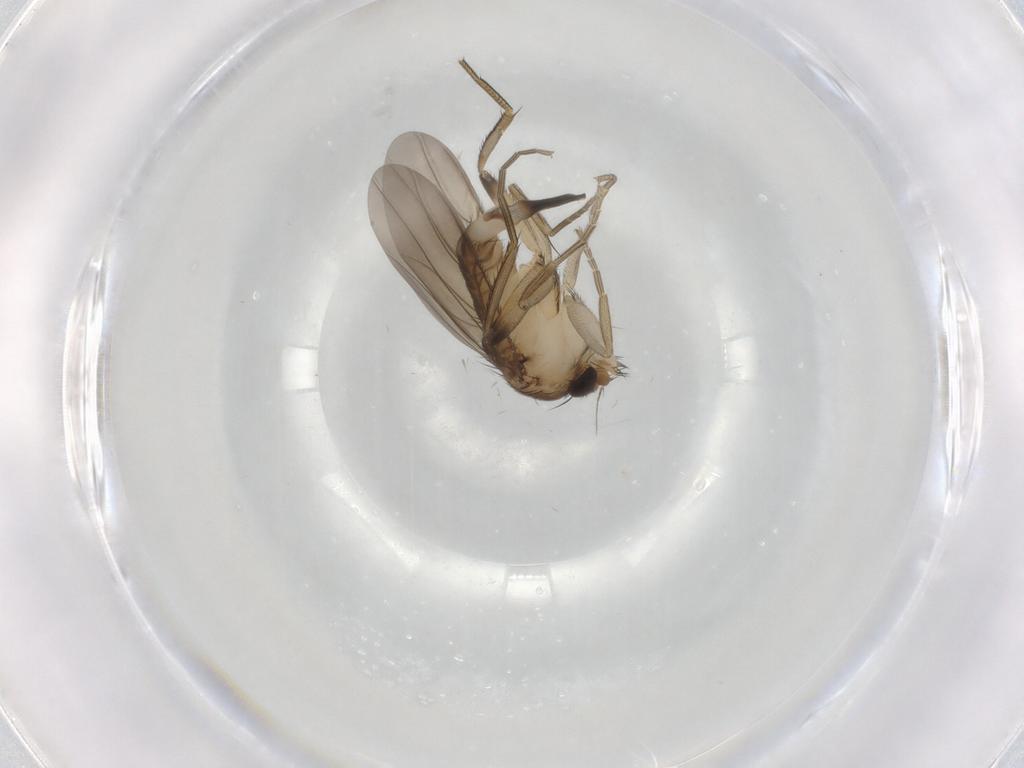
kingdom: Animalia
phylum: Arthropoda
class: Insecta
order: Diptera
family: Phoridae
